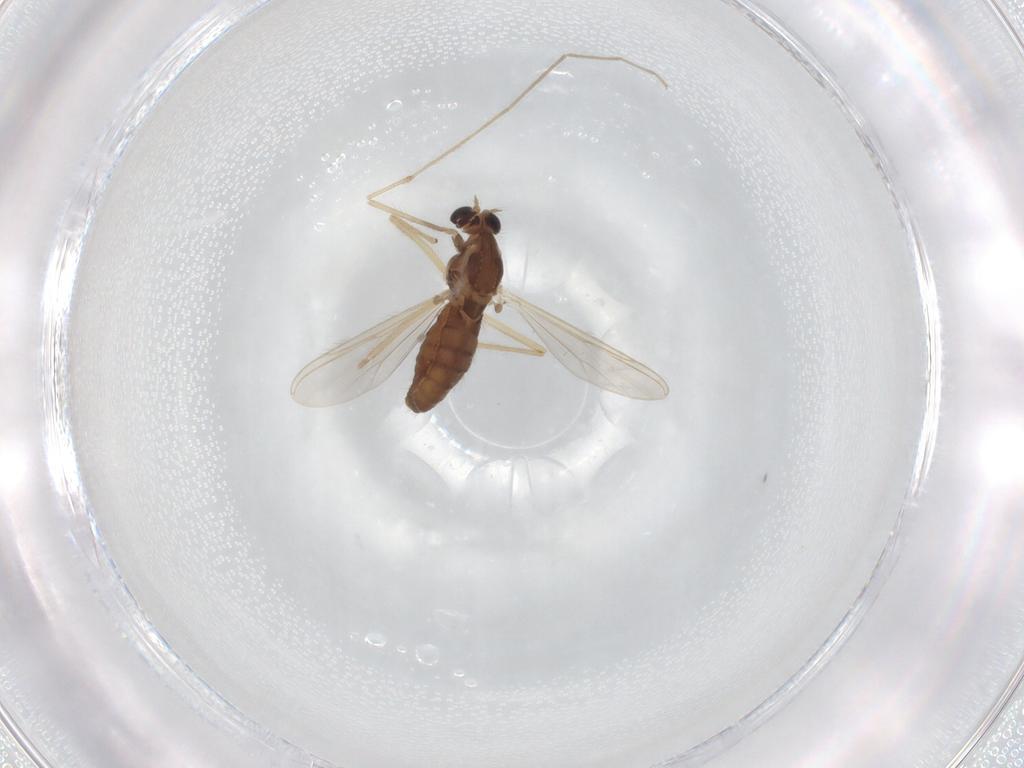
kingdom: Animalia
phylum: Arthropoda
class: Insecta
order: Diptera
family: Chironomidae
